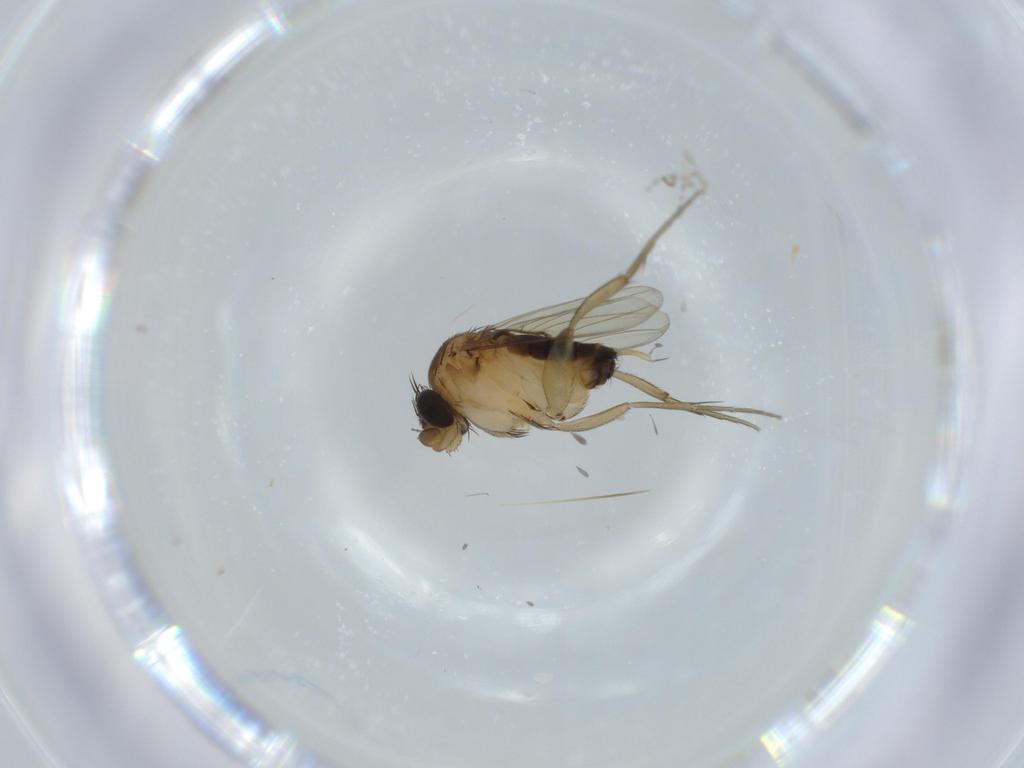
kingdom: Animalia
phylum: Arthropoda
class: Insecta
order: Diptera
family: Chironomidae
